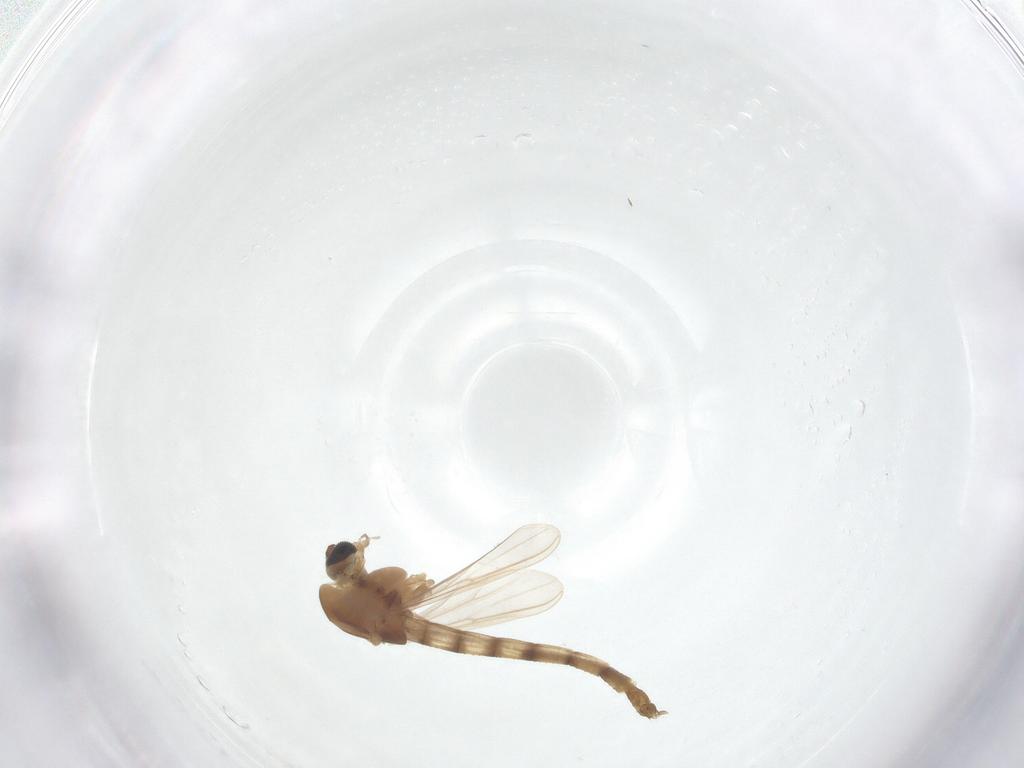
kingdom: Animalia
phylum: Arthropoda
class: Insecta
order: Diptera
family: Chironomidae
